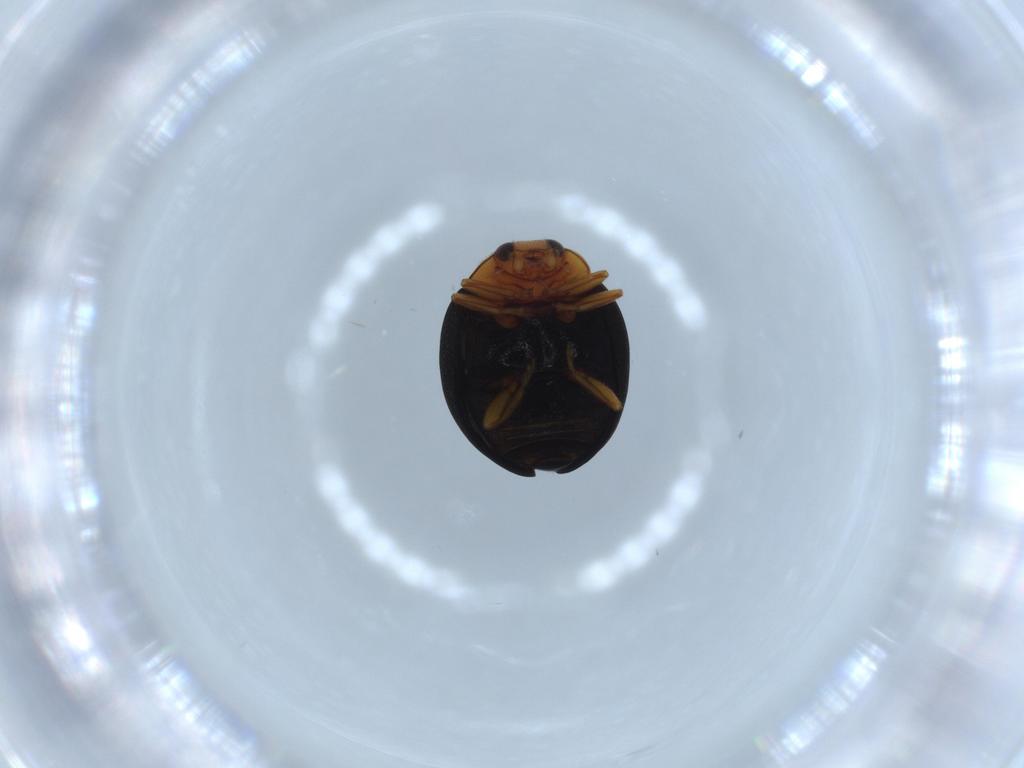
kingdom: Animalia
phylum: Arthropoda
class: Insecta
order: Coleoptera
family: Coccinellidae
